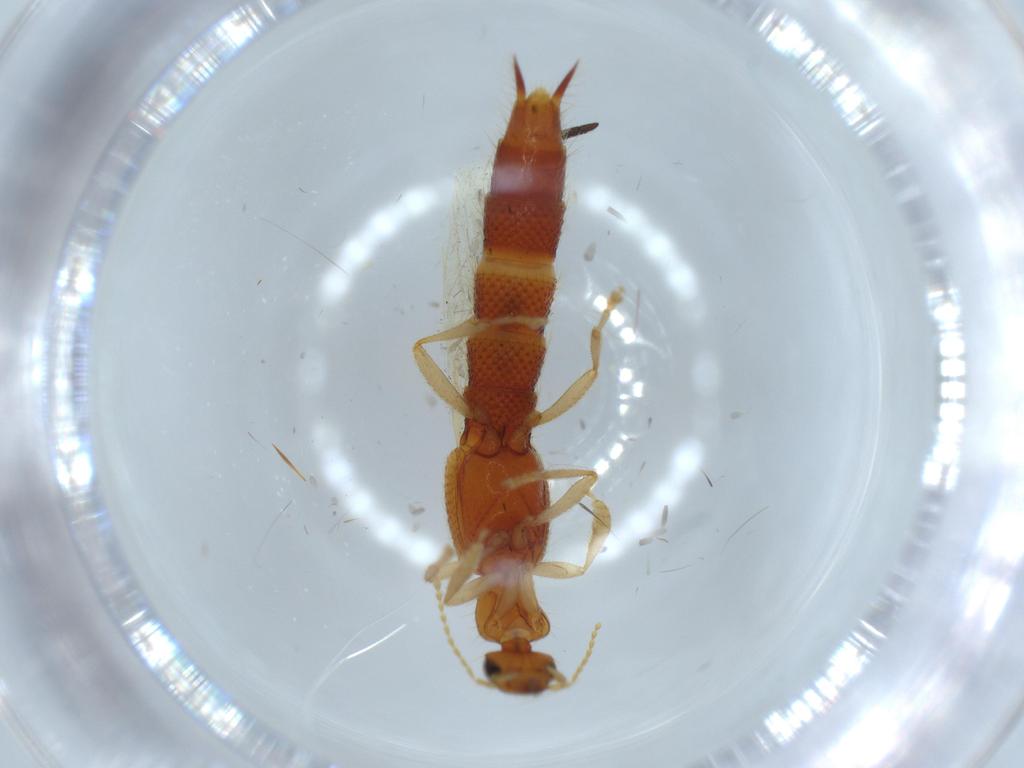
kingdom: Animalia
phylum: Arthropoda
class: Insecta
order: Coleoptera
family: Staphylinidae
